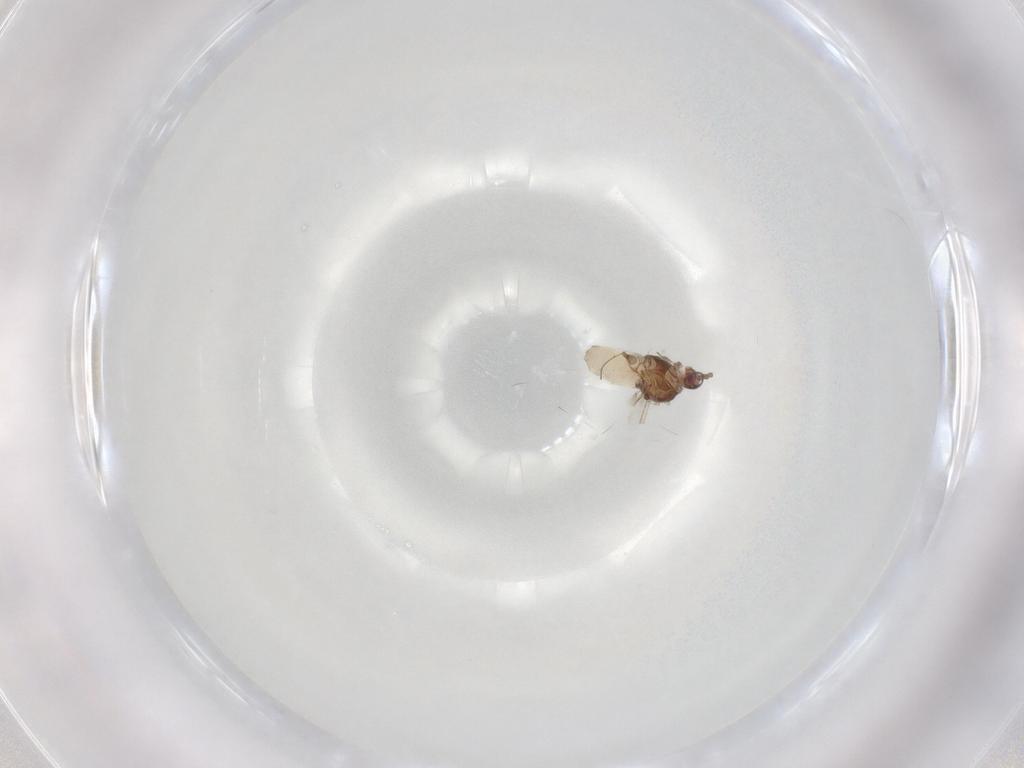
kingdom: Animalia
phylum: Arthropoda
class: Insecta
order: Hemiptera
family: Aphididae
